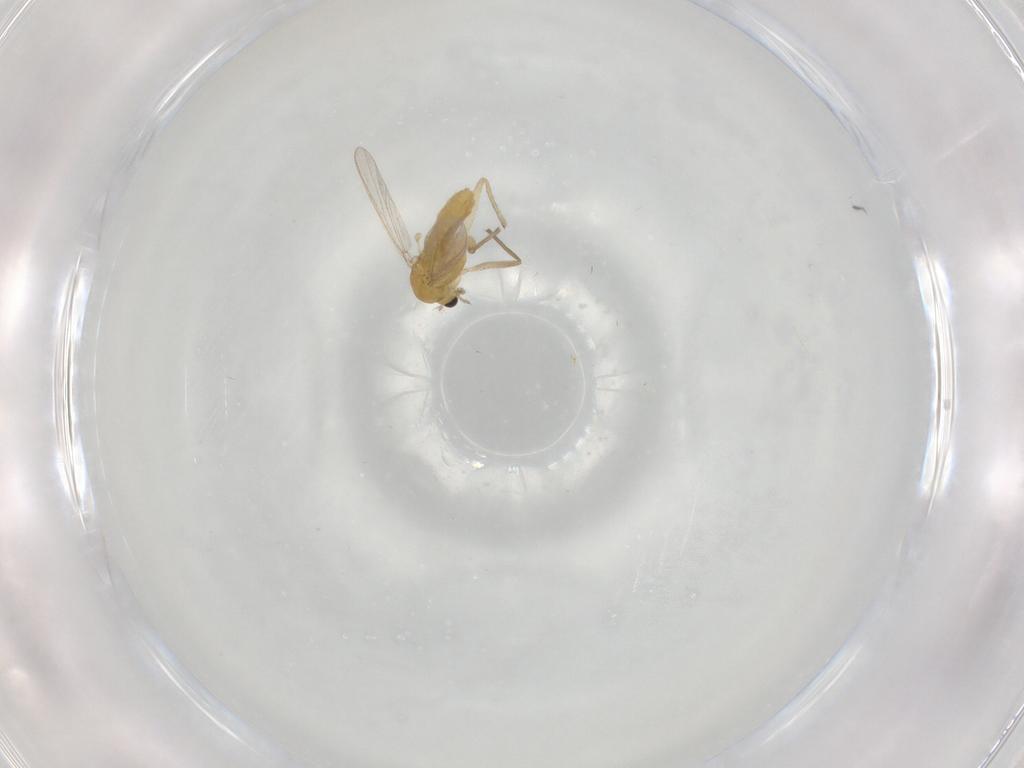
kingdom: Animalia
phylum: Arthropoda
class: Insecta
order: Diptera
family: Chironomidae
